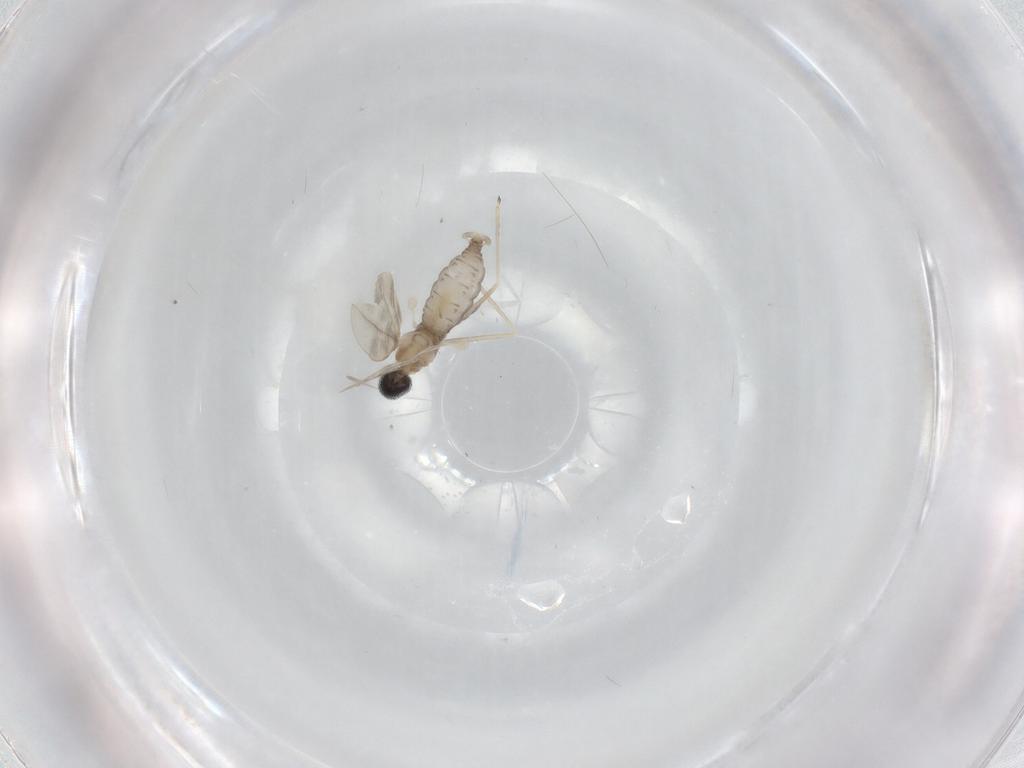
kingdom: Animalia
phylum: Arthropoda
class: Insecta
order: Diptera
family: Cecidomyiidae
